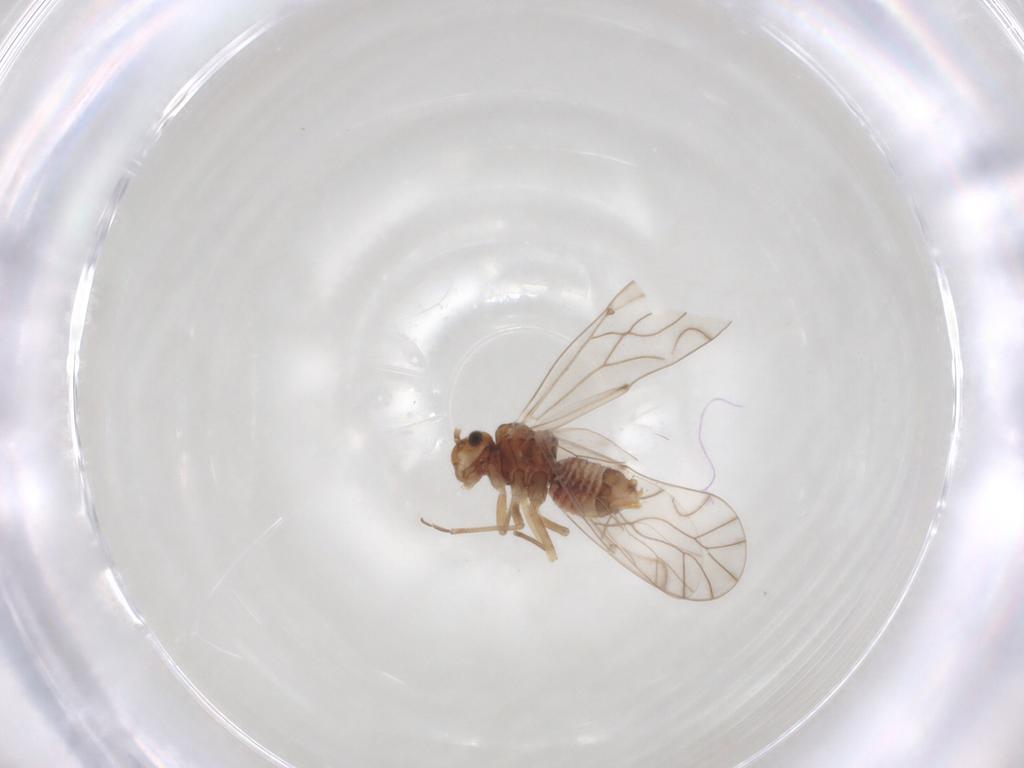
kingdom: Animalia
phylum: Arthropoda
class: Insecta
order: Psocodea
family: Lachesillidae
